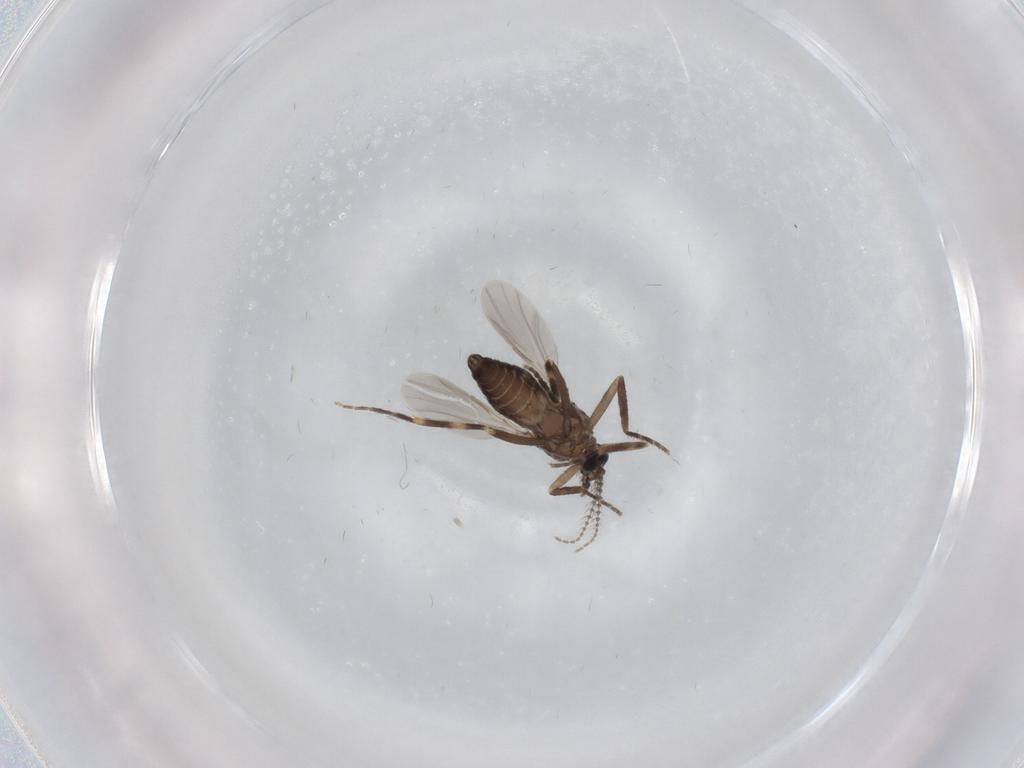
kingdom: Animalia
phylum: Arthropoda
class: Insecta
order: Diptera
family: Ceratopogonidae
